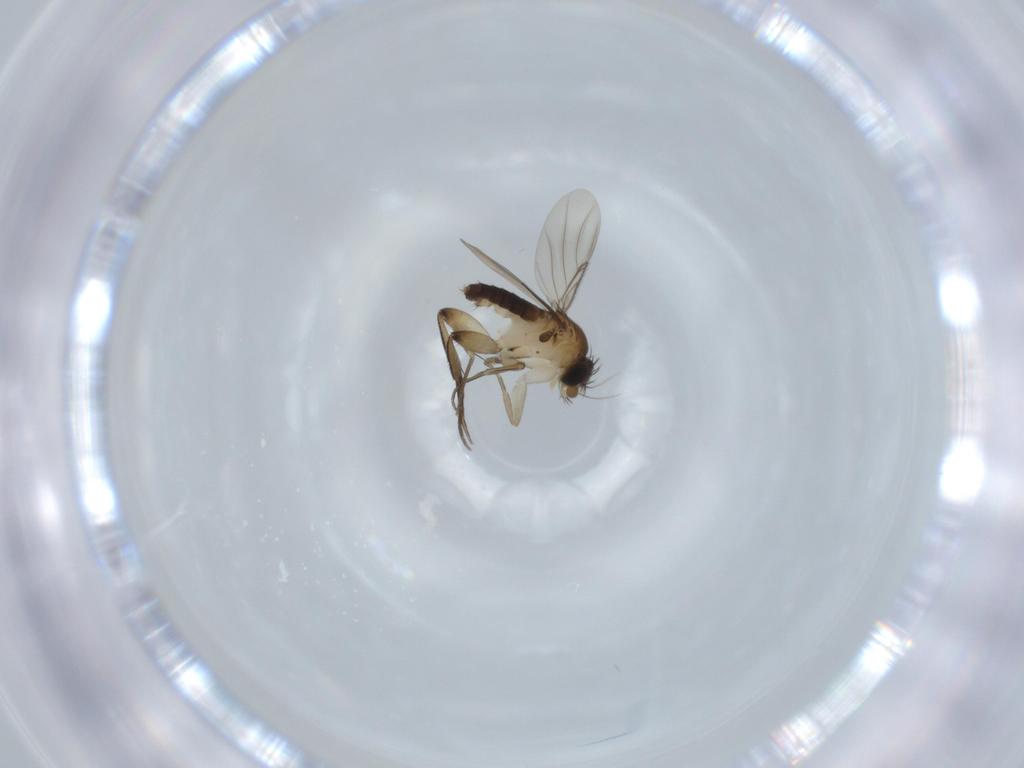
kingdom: Animalia
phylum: Arthropoda
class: Insecta
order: Diptera
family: Phoridae
